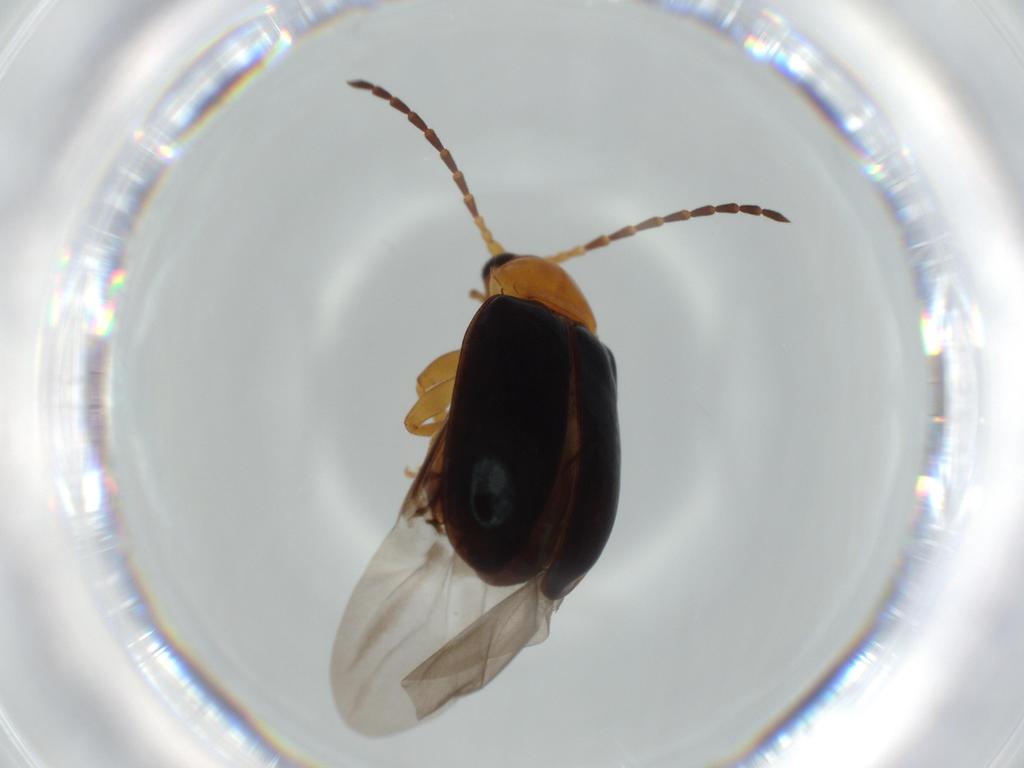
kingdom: Animalia
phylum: Arthropoda
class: Insecta
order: Coleoptera
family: Chrysomelidae
